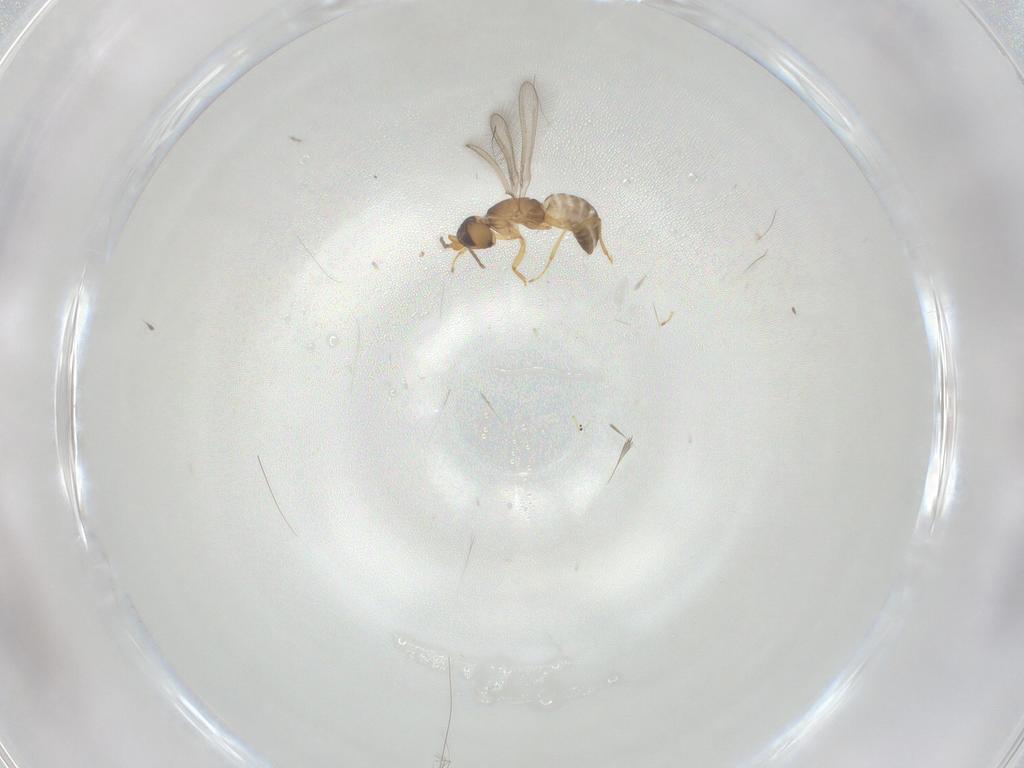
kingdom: Animalia
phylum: Arthropoda
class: Insecta
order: Hymenoptera
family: Mymaridae
